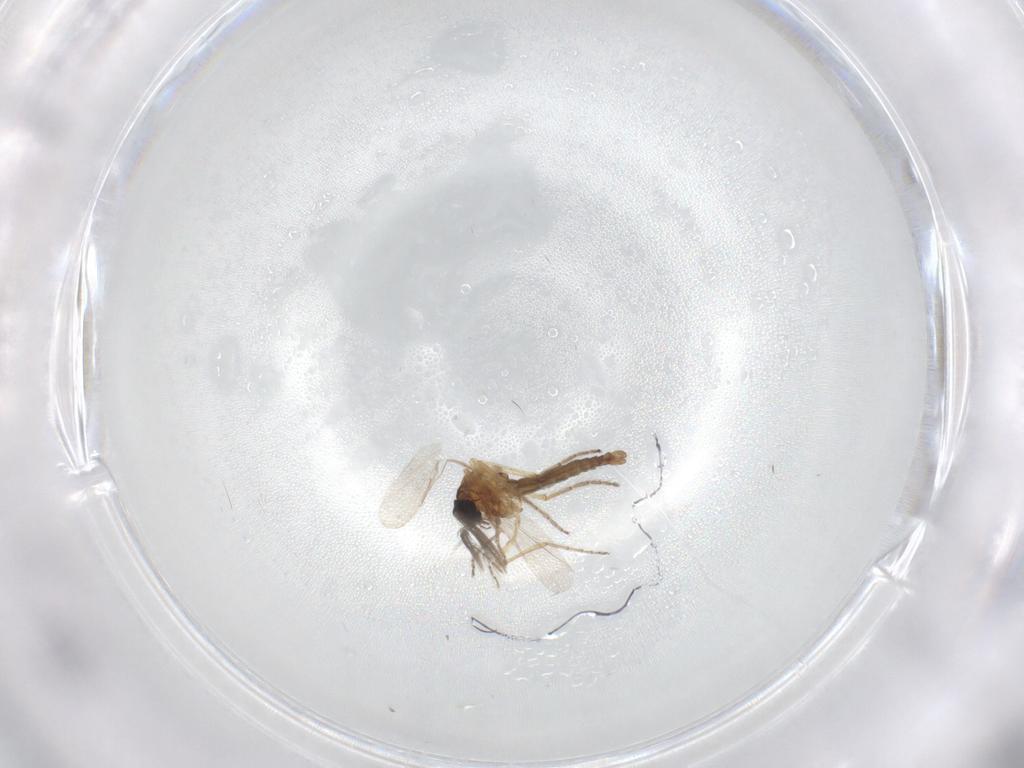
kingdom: Animalia
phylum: Arthropoda
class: Insecta
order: Diptera
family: Ceratopogonidae
